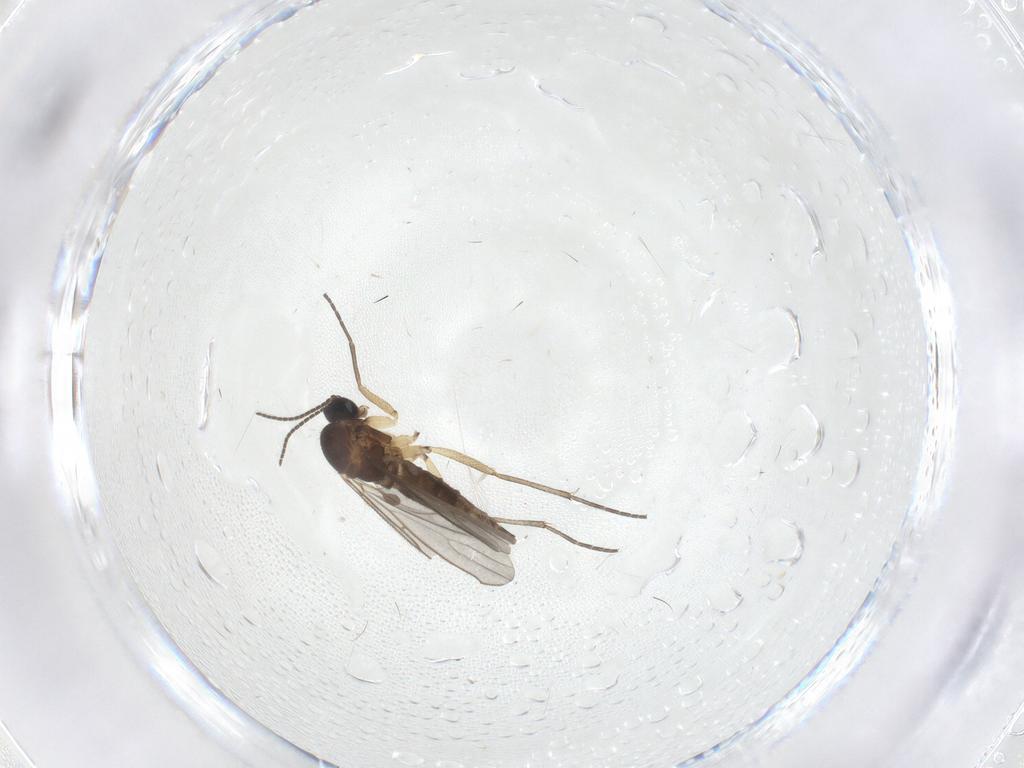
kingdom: Animalia
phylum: Arthropoda
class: Insecta
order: Diptera
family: Sciaridae
